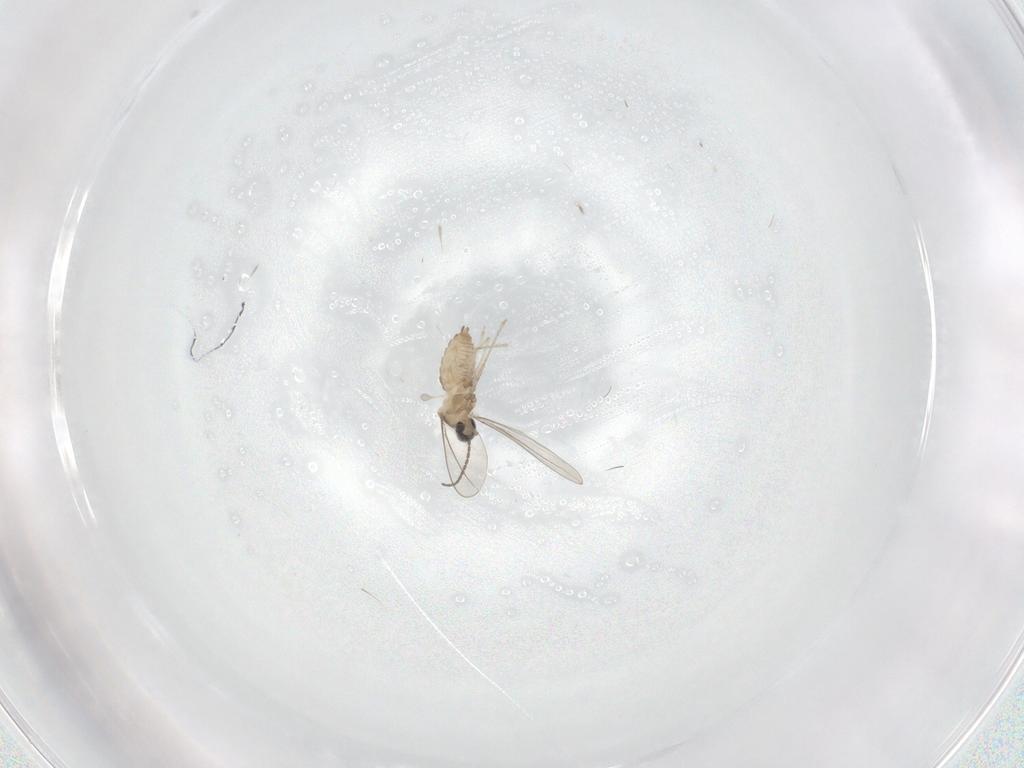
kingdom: Animalia
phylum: Arthropoda
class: Insecta
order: Diptera
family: Cecidomyiidae
